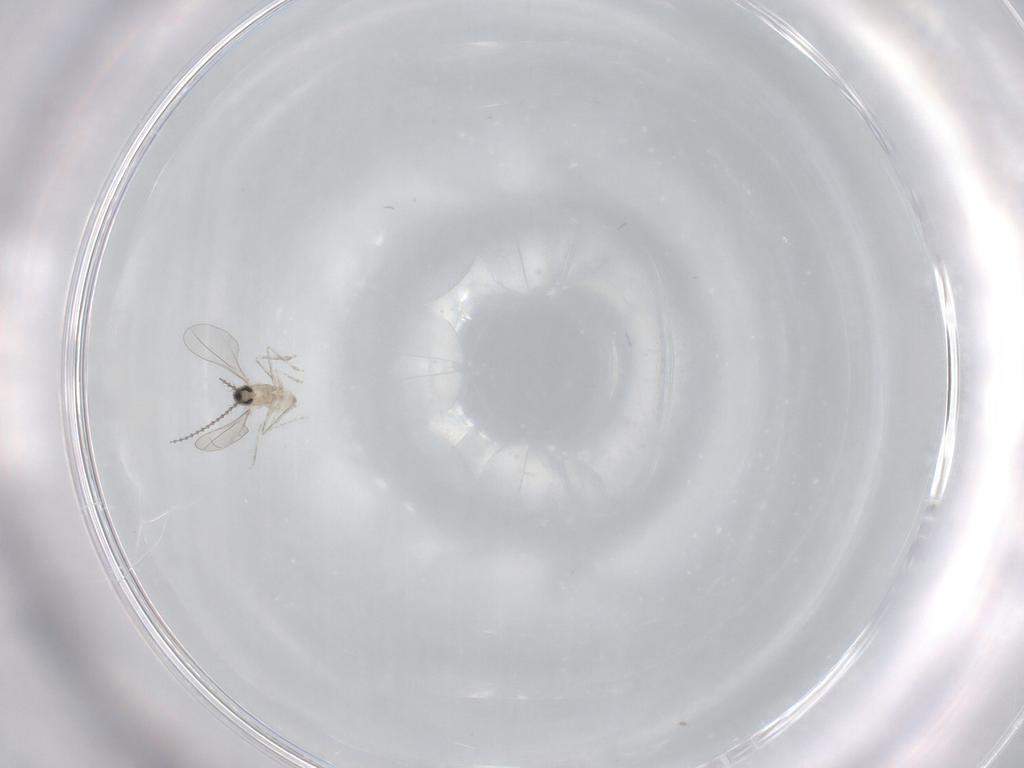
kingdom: Animalia
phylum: Arthropoda
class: Insecta
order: Diptera
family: Cecidomyiidae
